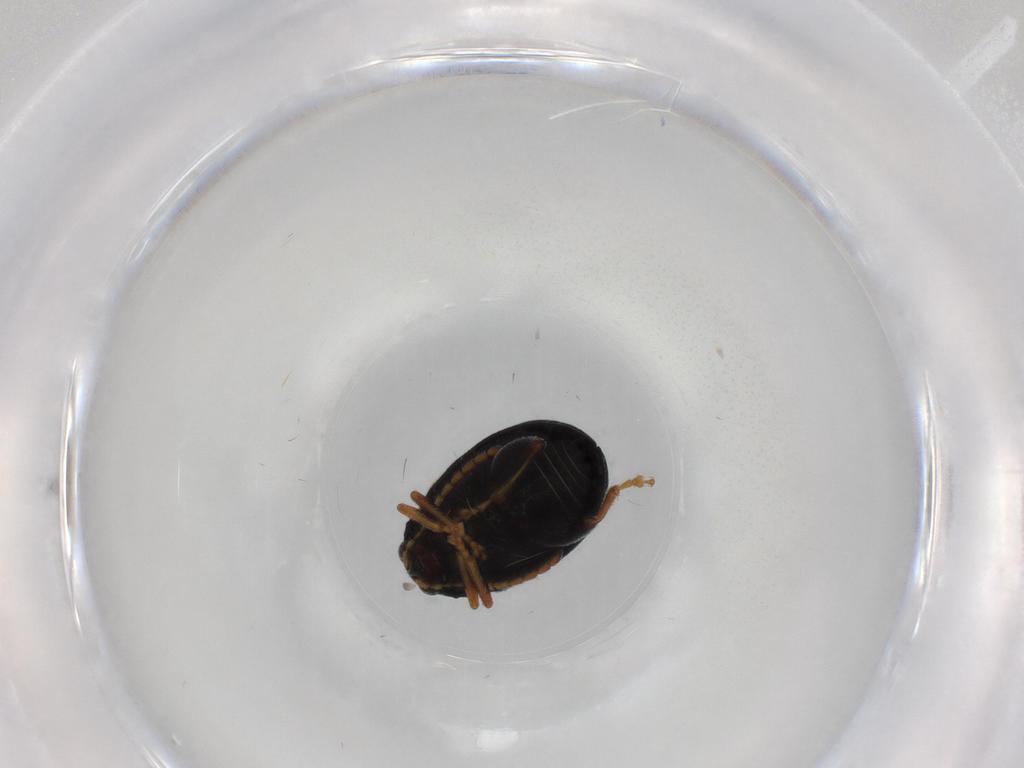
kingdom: Animalia
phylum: Arthropoda
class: Insecta
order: Coleoptera
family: Chrysomelidae
